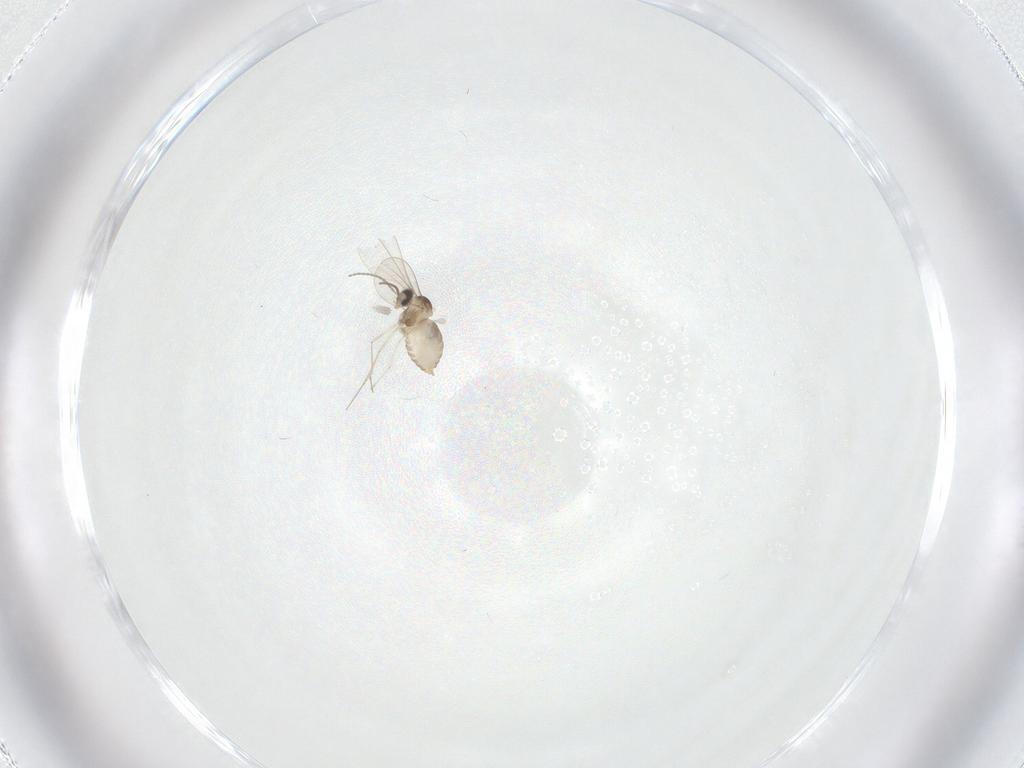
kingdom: Animalia
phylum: Arthropoda
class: Insecta
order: Diptera
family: Cecidomyiidae
